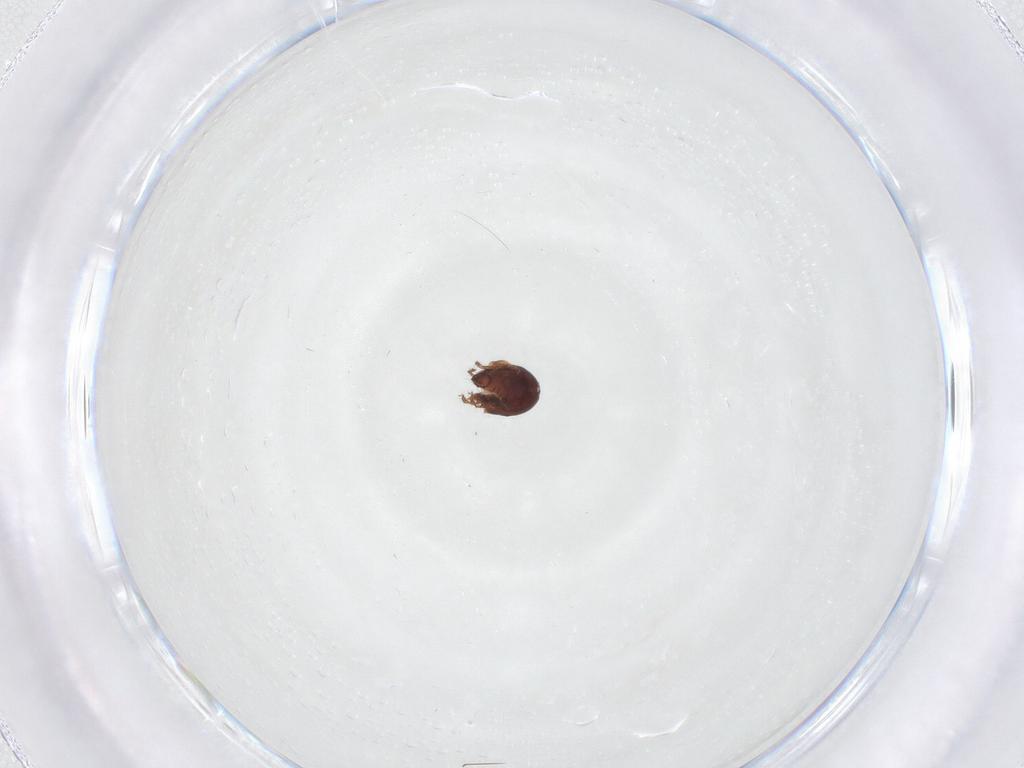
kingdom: Animalia
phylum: Arthropoda
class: Arachnida
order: Sarcoptiformes
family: Ceratozetidae
